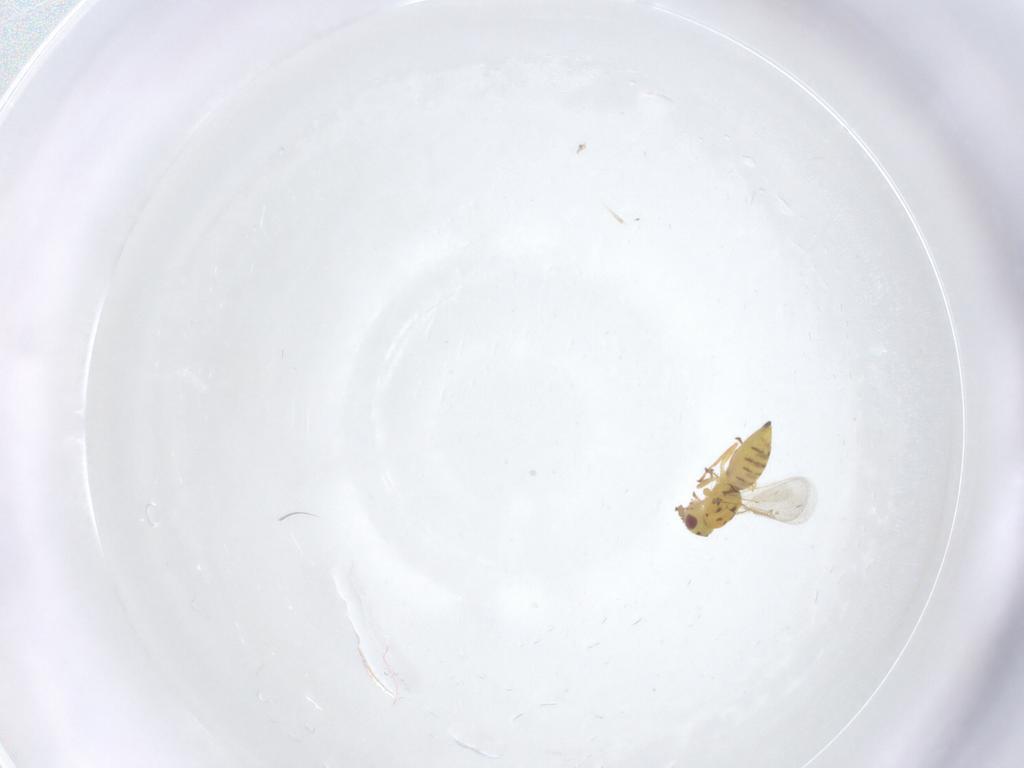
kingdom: Animalia
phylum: Arthropoda
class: Insecta
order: Hymenoptera
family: Eulophidae
